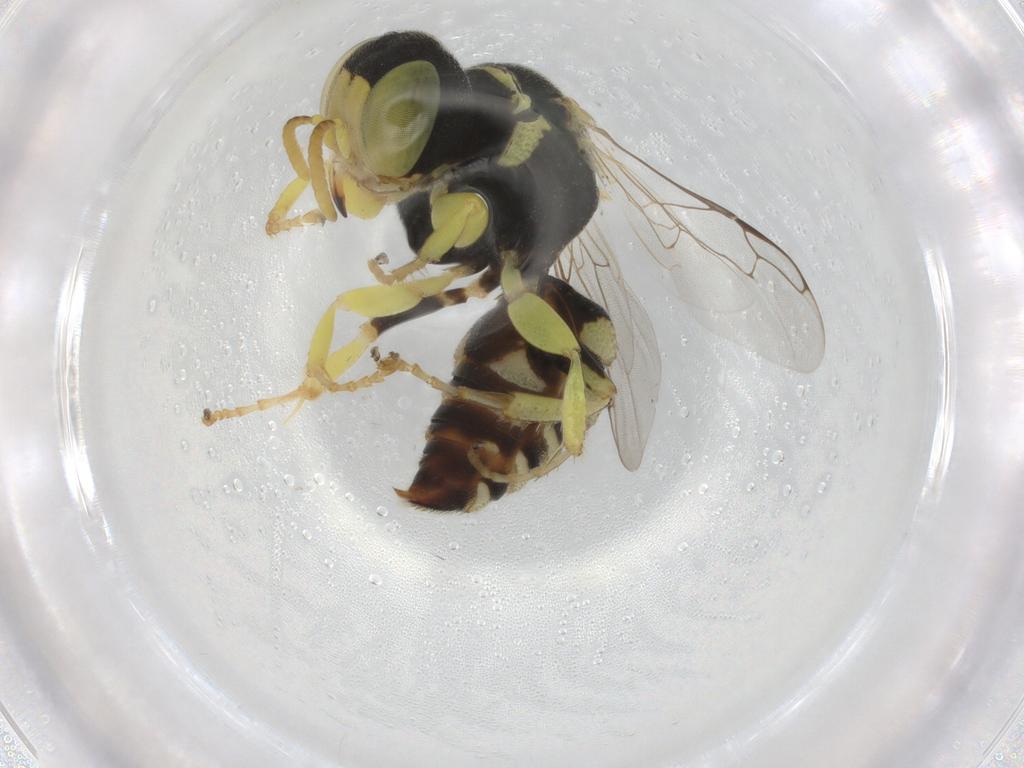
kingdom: Animalia
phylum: Arthropoda
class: Insecta
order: Hymenoptera
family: Crabronidae
